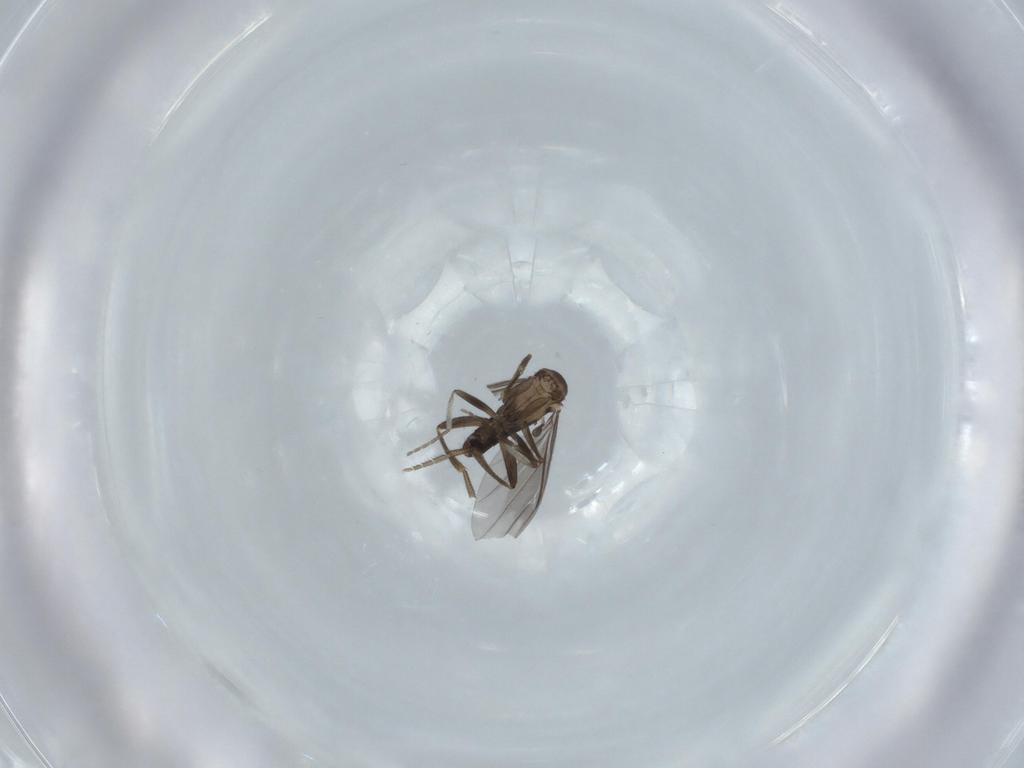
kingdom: Animalia
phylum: Arthropoda
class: Insecta
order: Diptera
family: Phoridae
